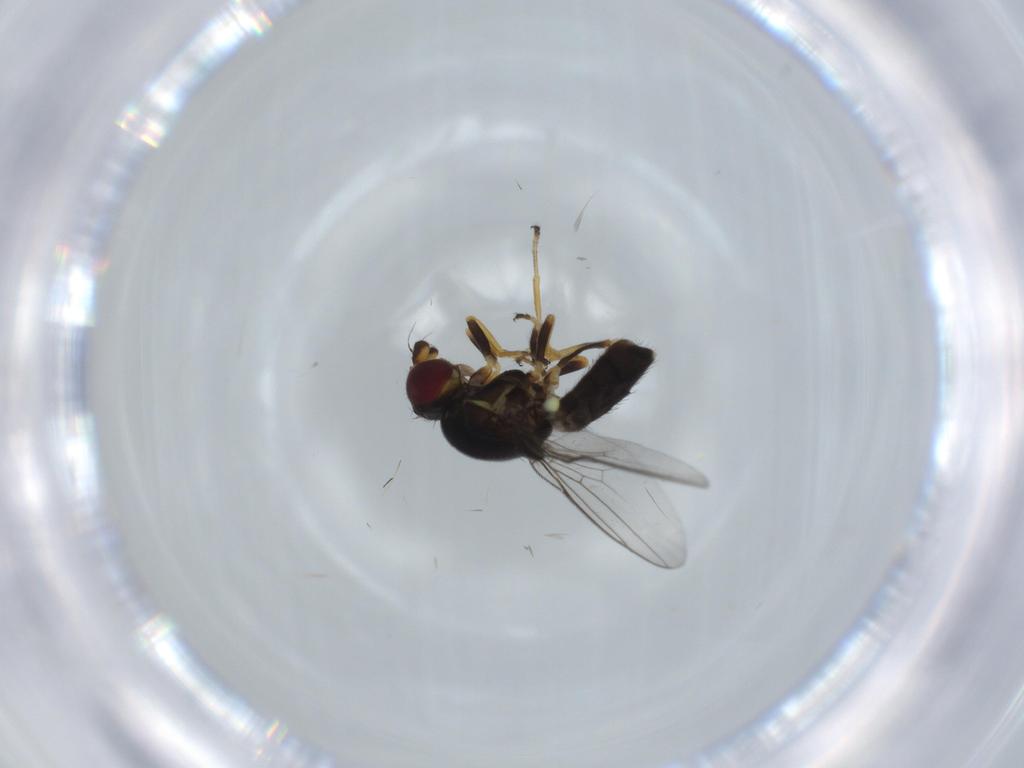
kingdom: Animalia
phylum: Arthropoda
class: Insecta
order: Diptera
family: Chloropidae
